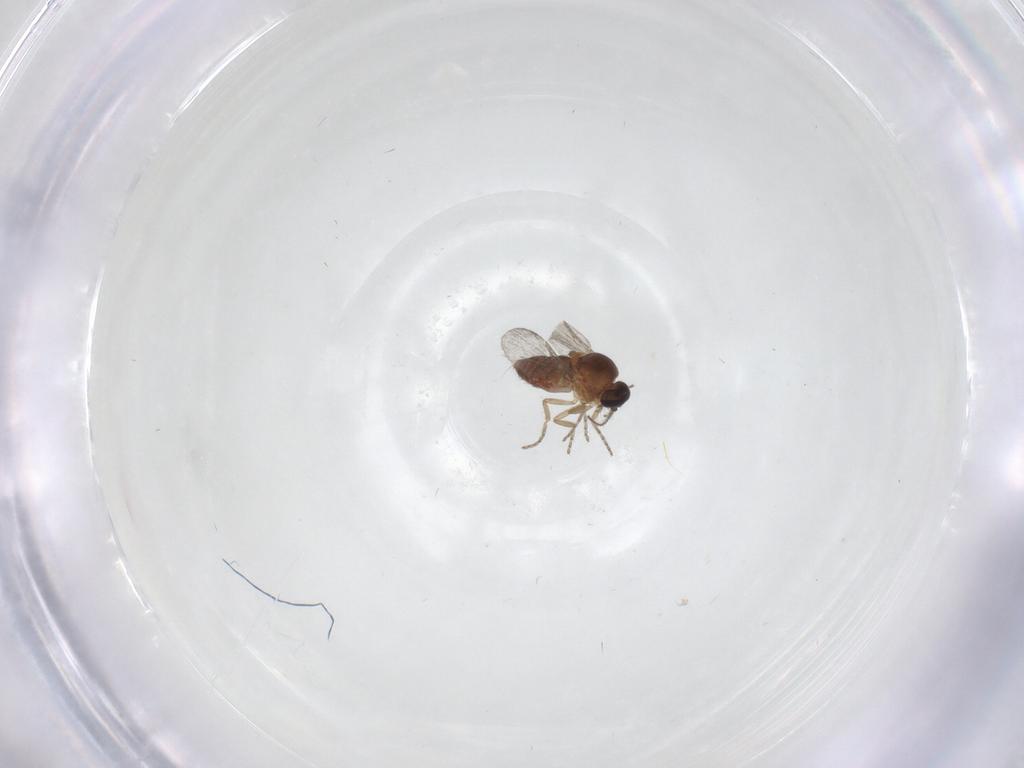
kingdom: Animalia
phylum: Arthropoda
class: Insecta
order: Diptera
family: Ceratopogonidae
